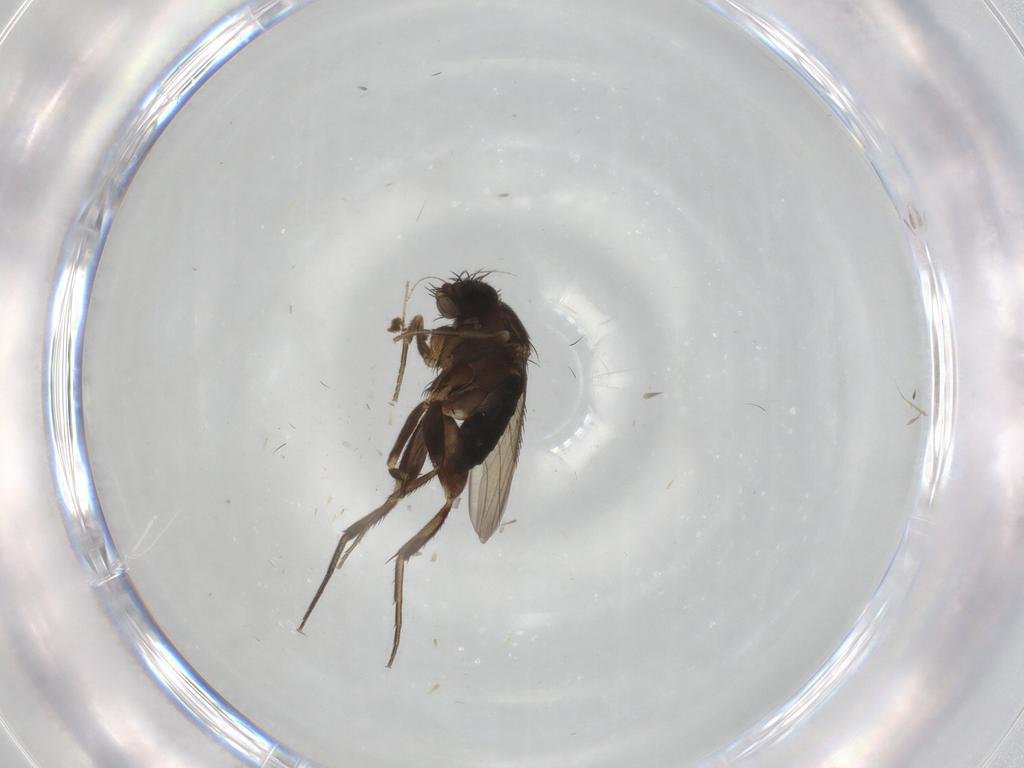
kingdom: Animalia
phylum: Arthropoda
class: Insecta
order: Diptera
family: Phoridae
